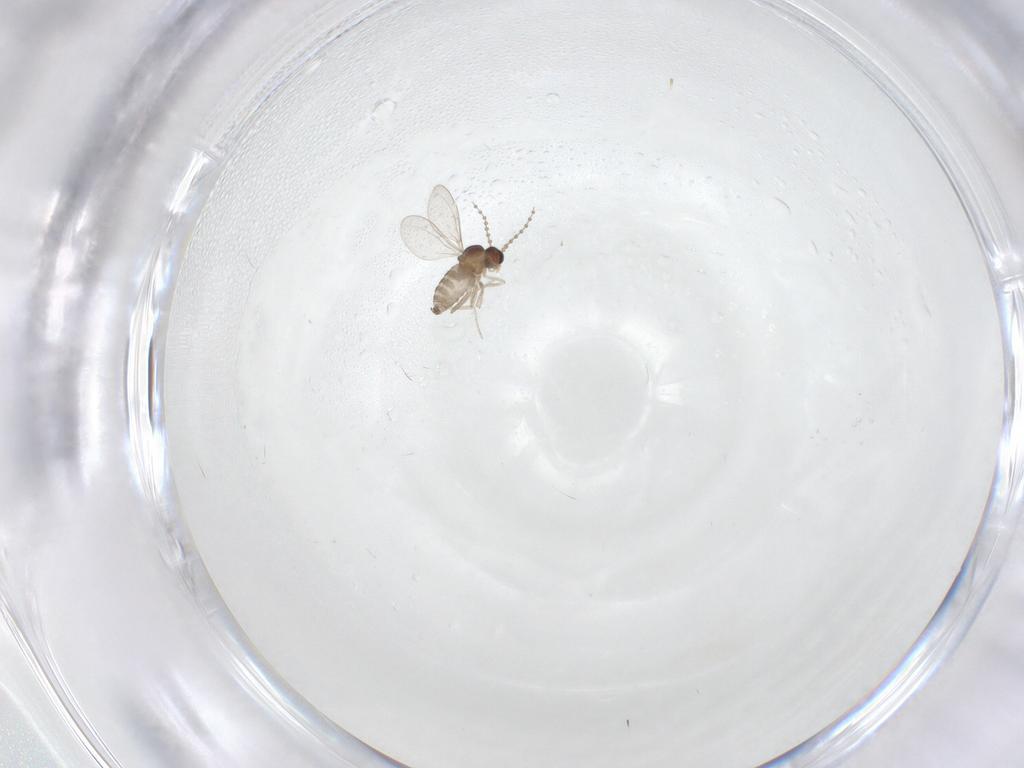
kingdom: Animalia
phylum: Arthropoda
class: Insecta
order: Diptera
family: Cecidomyiidae
